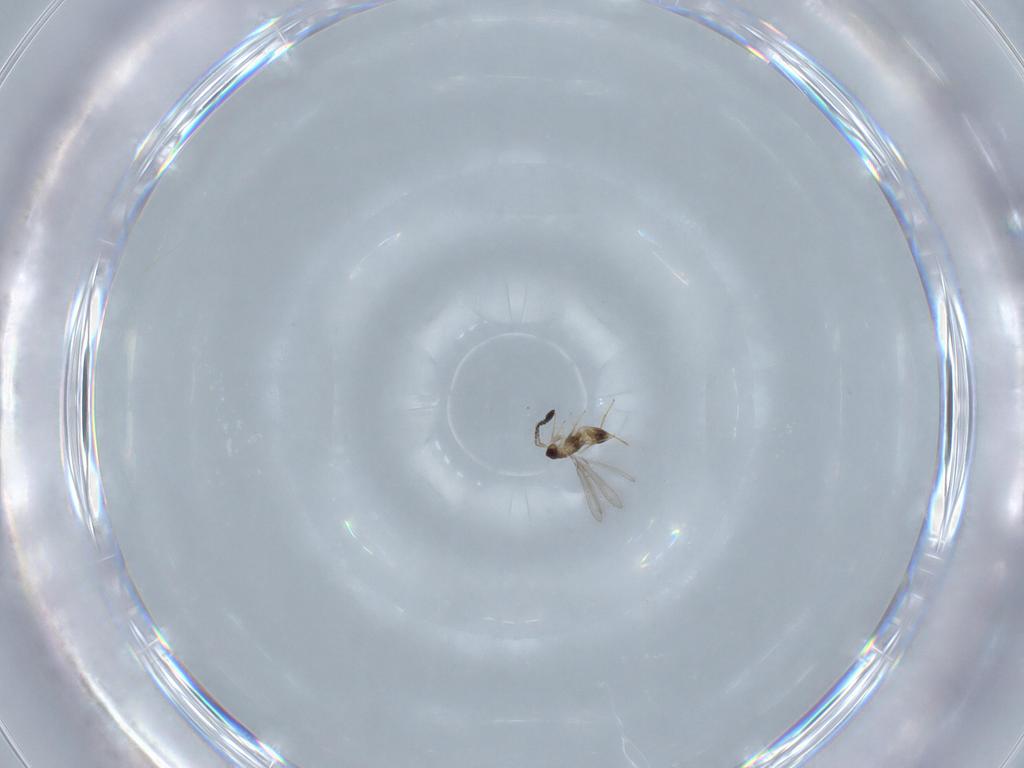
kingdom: Animalia
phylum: Arthropoda
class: Insecta
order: Hymenoptera
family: Mymaridae
